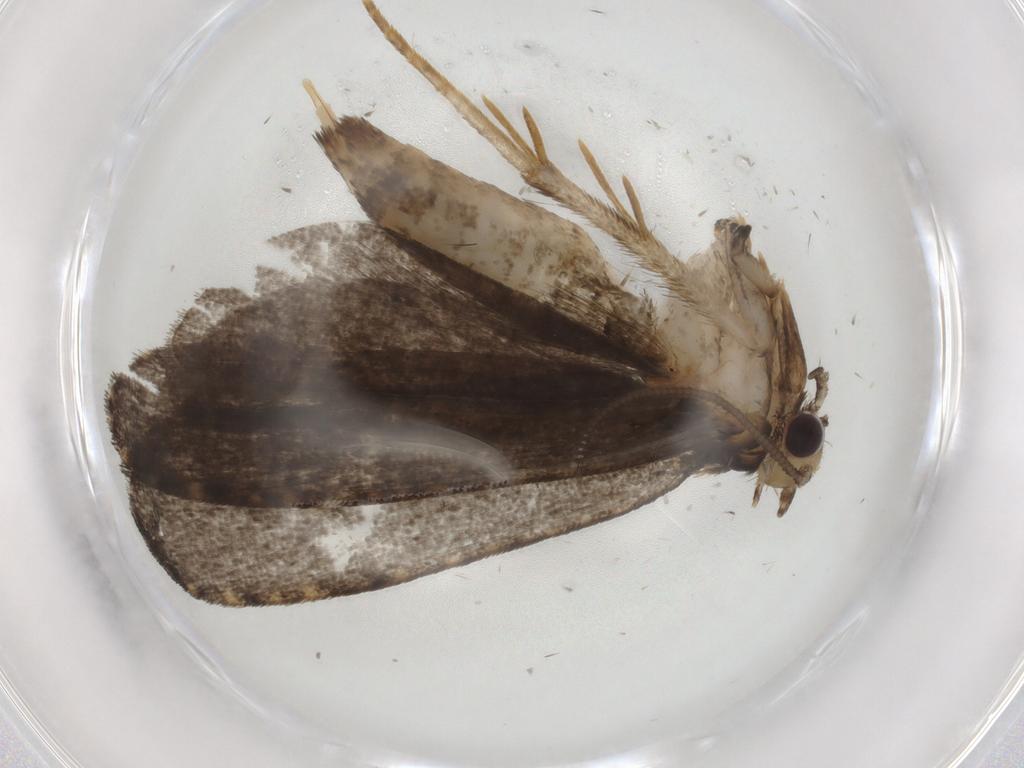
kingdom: Animalia
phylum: Arthropoda
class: Insecta
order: Lepidoptera
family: Tineidae
